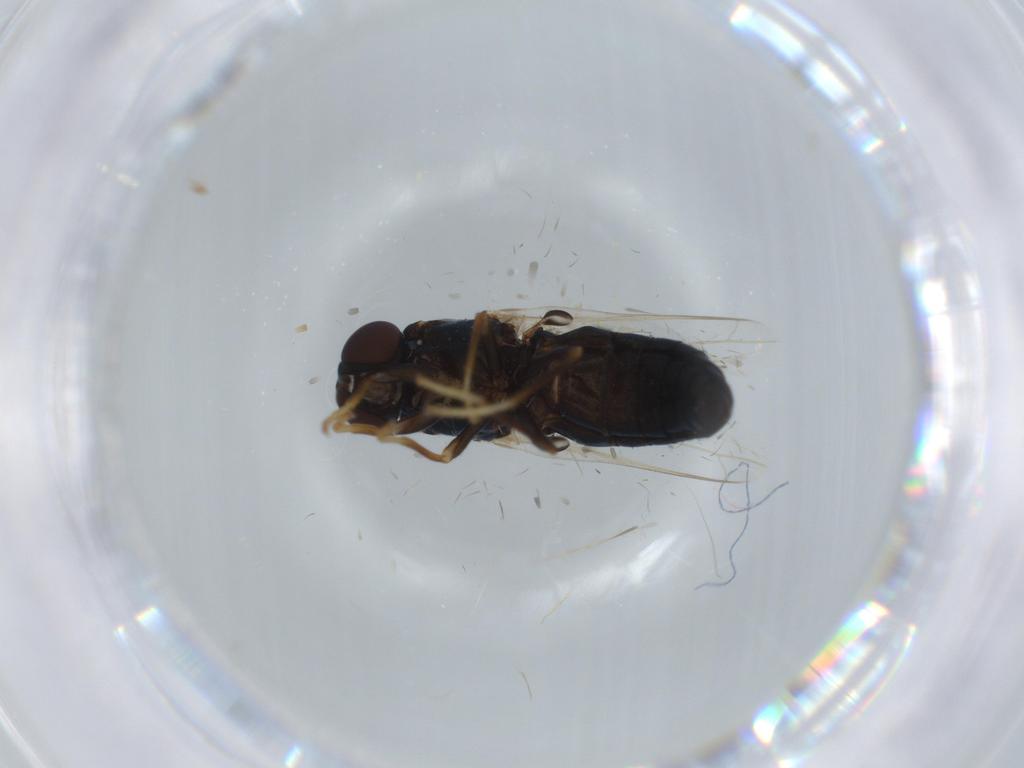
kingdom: Animalia
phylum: Arthropoda
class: Insecta
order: Diptera
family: Psychodidae
